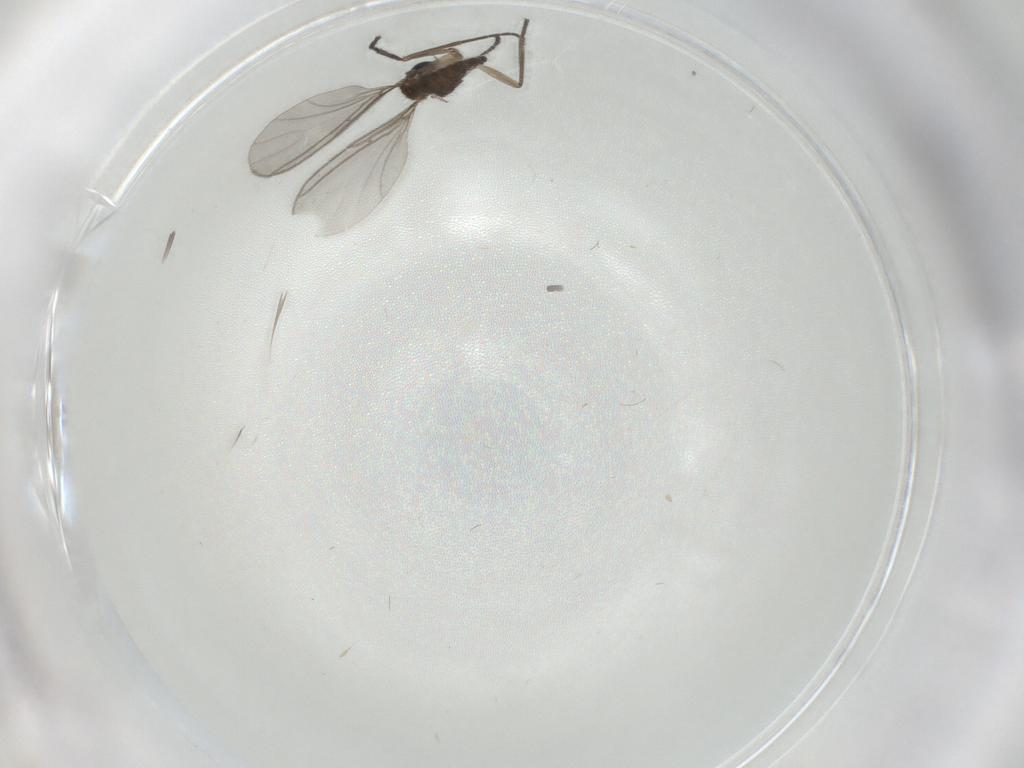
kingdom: Animalia
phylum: Arthropoda
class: Insecta
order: Diptera
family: Sciaridae
